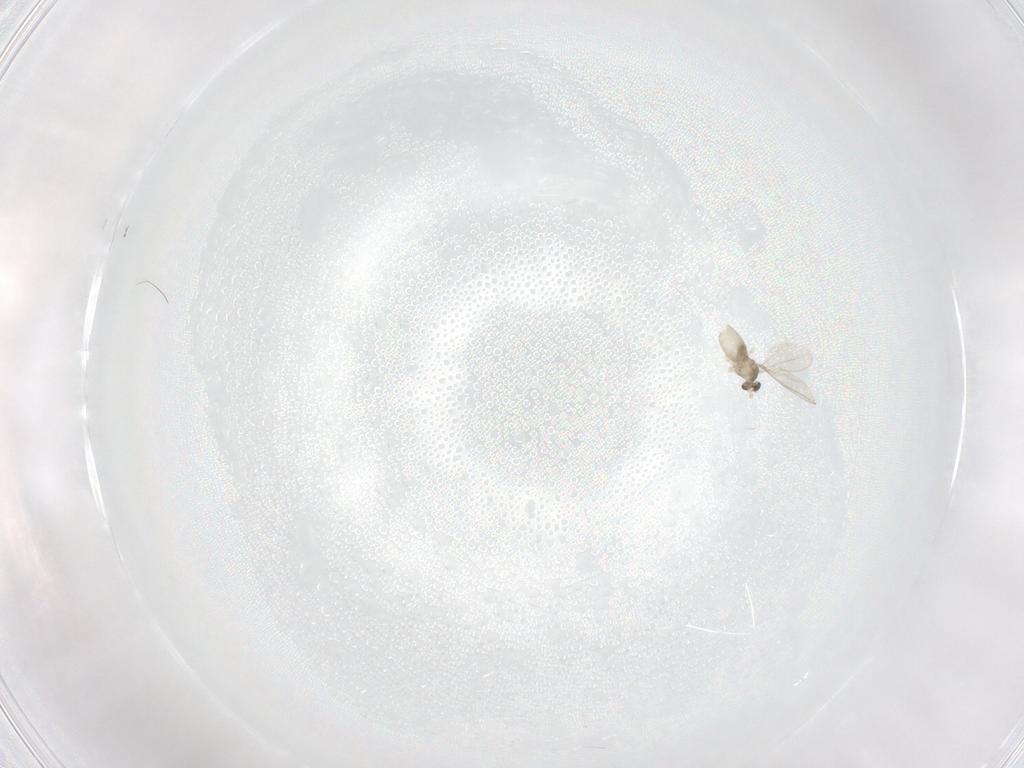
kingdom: Animalia
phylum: Arthropoda
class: Insecta
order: Diptera
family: Cecidomyiidae
